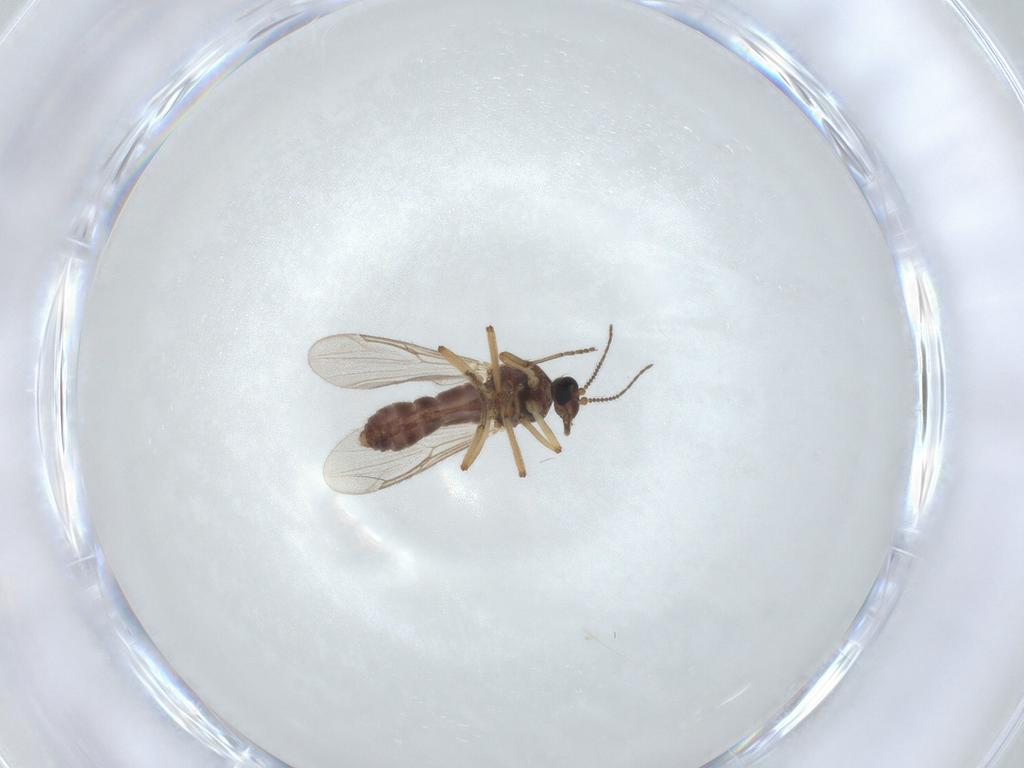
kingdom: Animalia
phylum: Arthropoda
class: Insecta
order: Diptera
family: Ceratopogonidae
